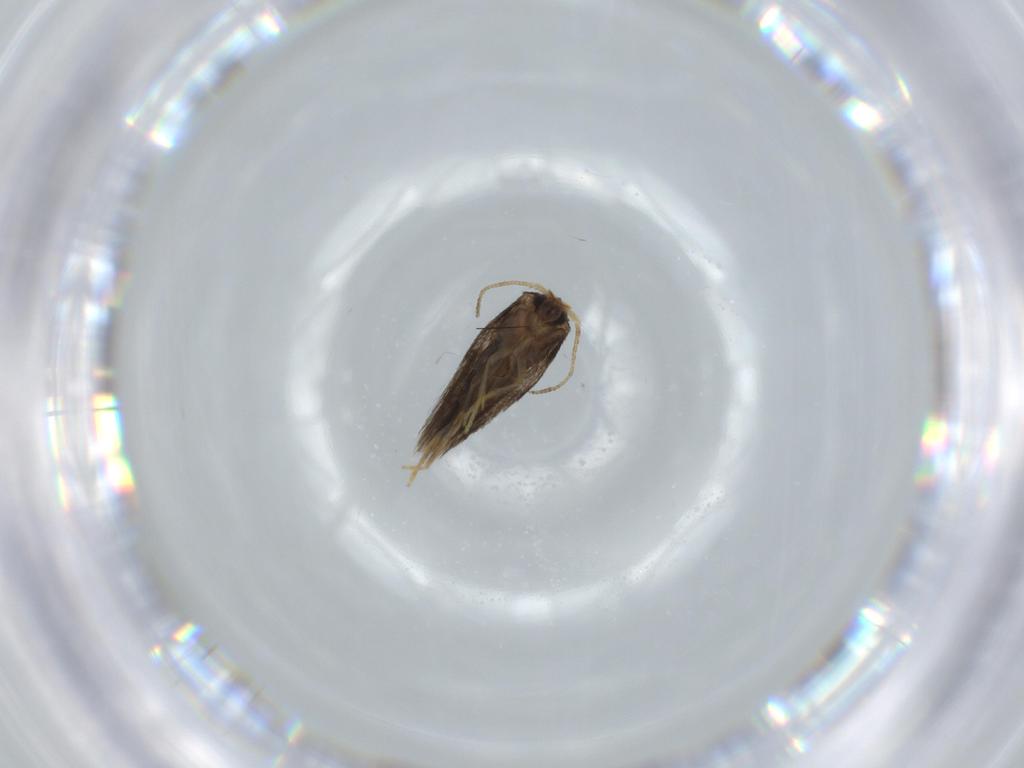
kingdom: Animalia
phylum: Arthropoda
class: Insecta
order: Lepidoptera
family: Nepticulidae
